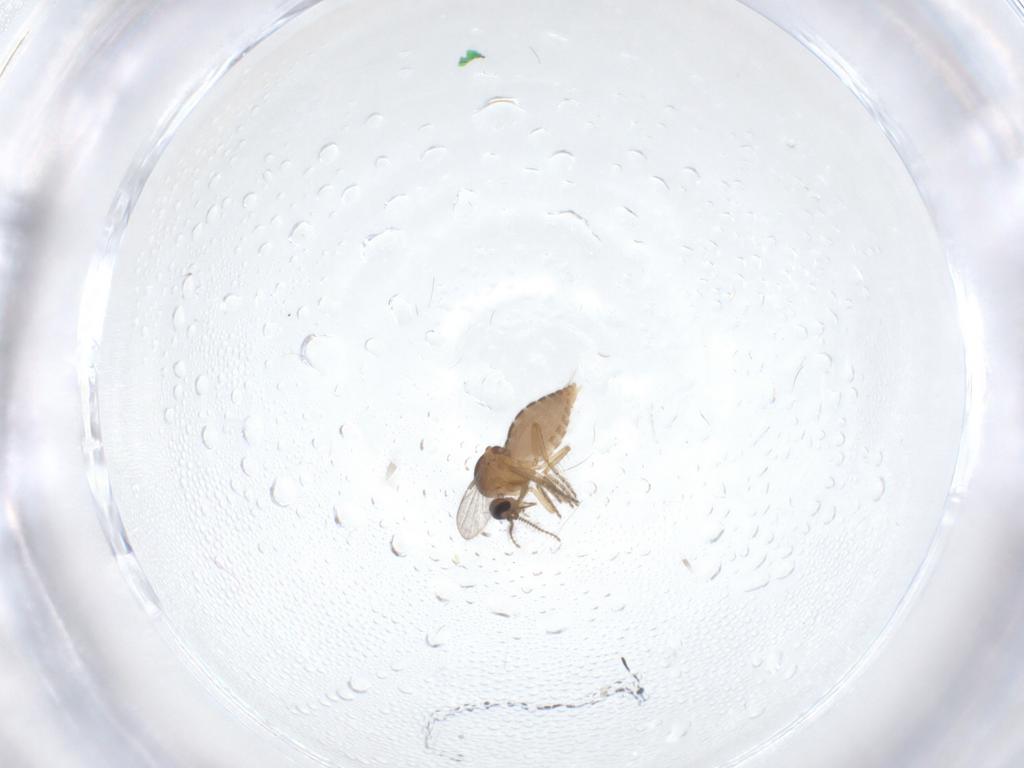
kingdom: Animalia
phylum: Arthropoda
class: Insecta
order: Diptera
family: Ceratopogonidae
